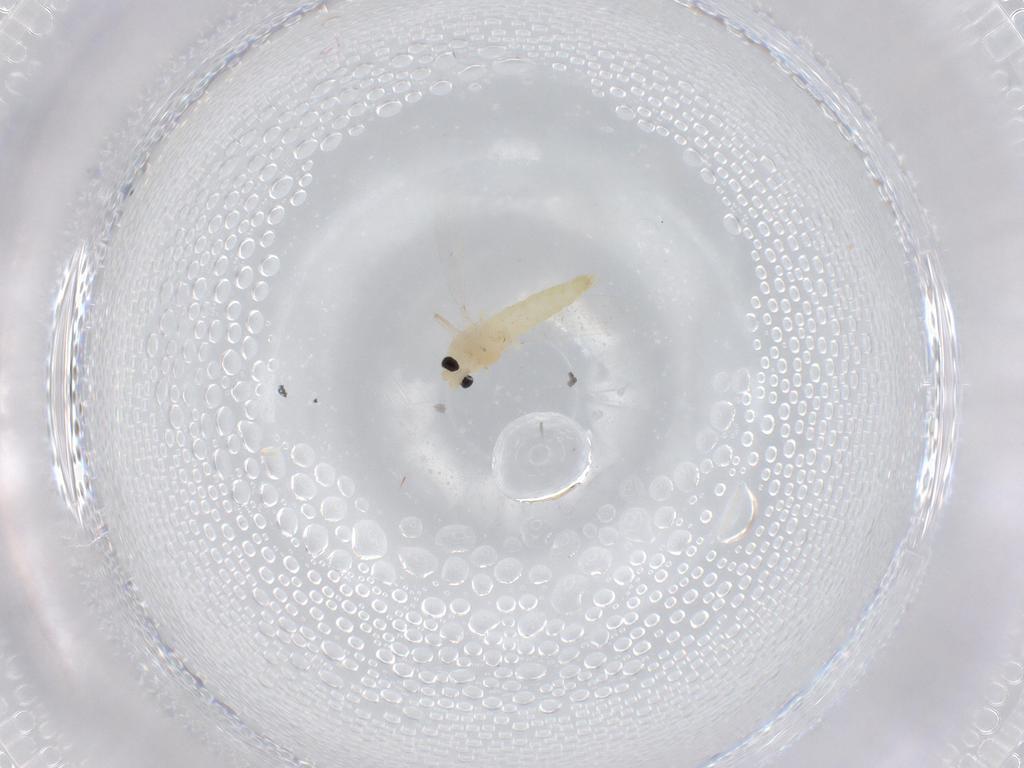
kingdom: Animalia
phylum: Arthropoda
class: Insecta
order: Diptera
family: Chironomidae
